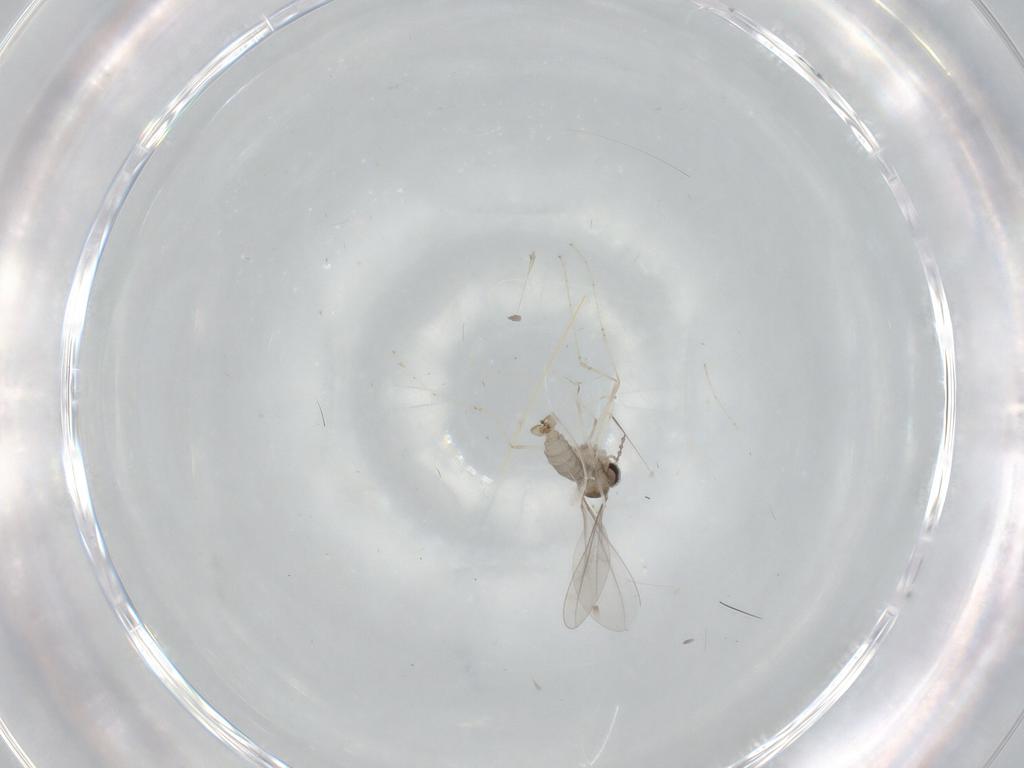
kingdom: Animalia
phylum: Arthropoda
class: Insecta
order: Diptera
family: Cecidomyiidae
